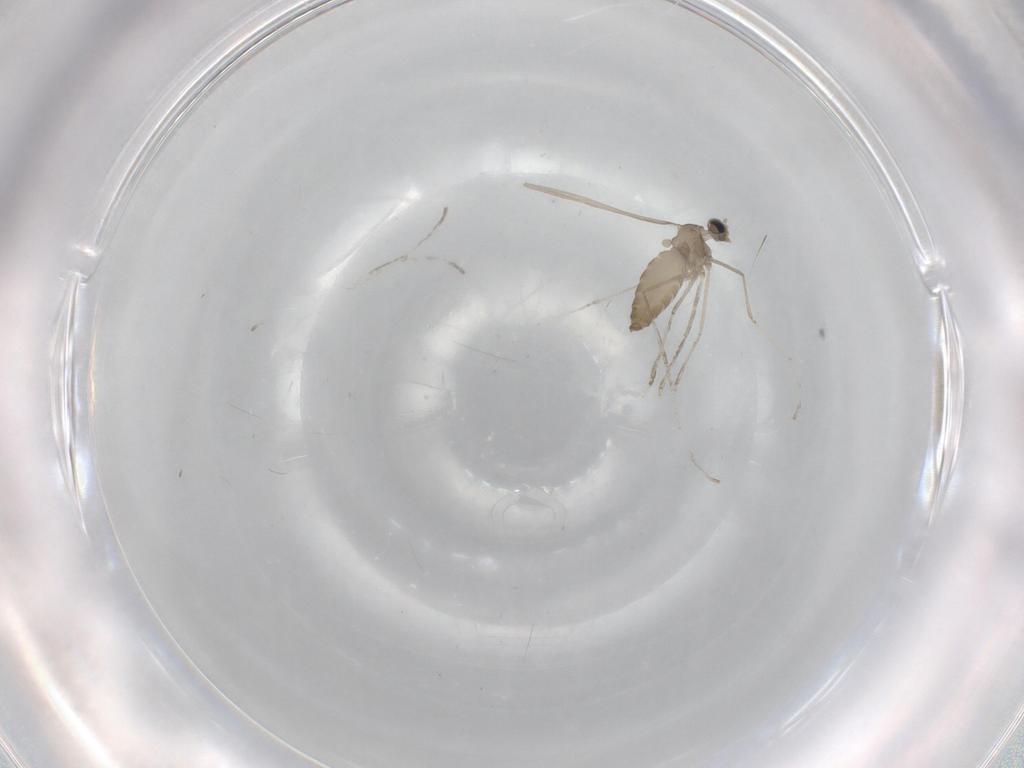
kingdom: Animalia
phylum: Arthropoda
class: Insecta
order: Diptera
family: Cecidomyiidae
